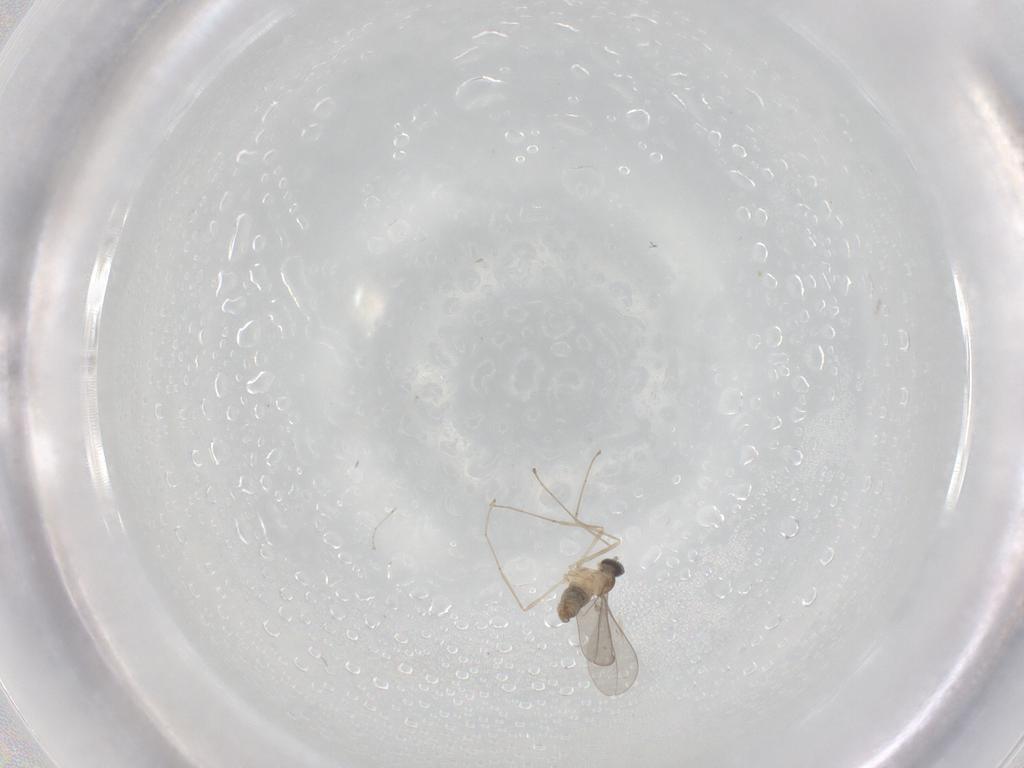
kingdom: Animalia
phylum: Arthropoda
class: Insecta
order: Diptera
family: Cecidomyiidae
